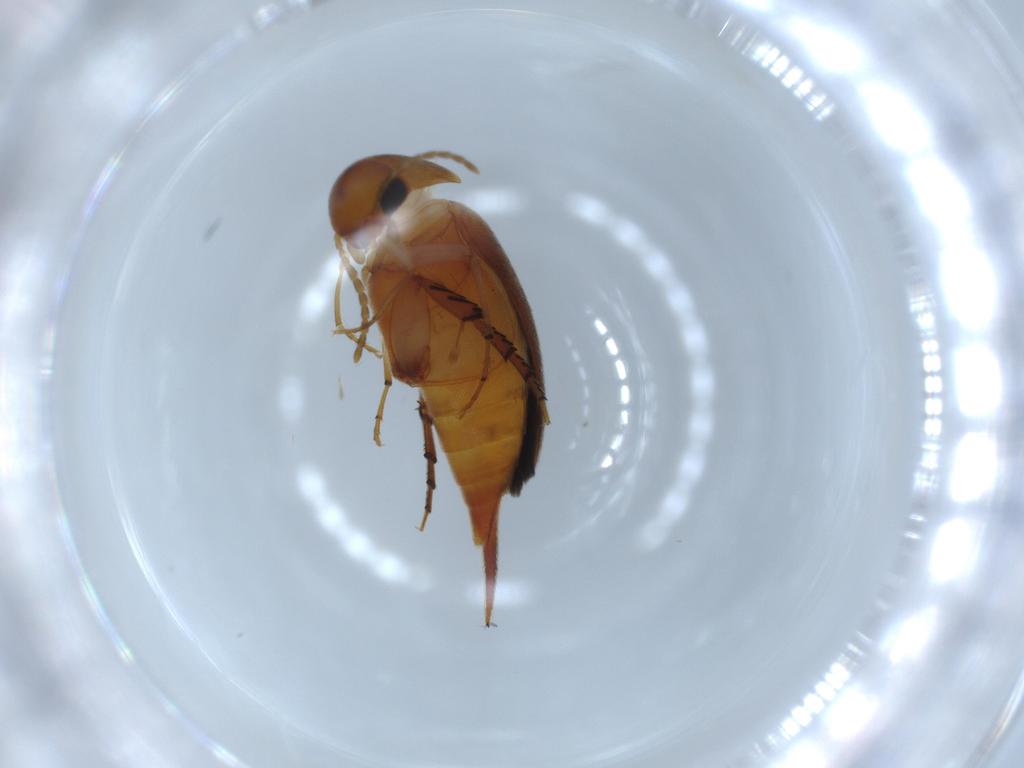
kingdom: Animalia
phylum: Arthropoda
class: Insecta
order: Coleoptera
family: Mordellidae
